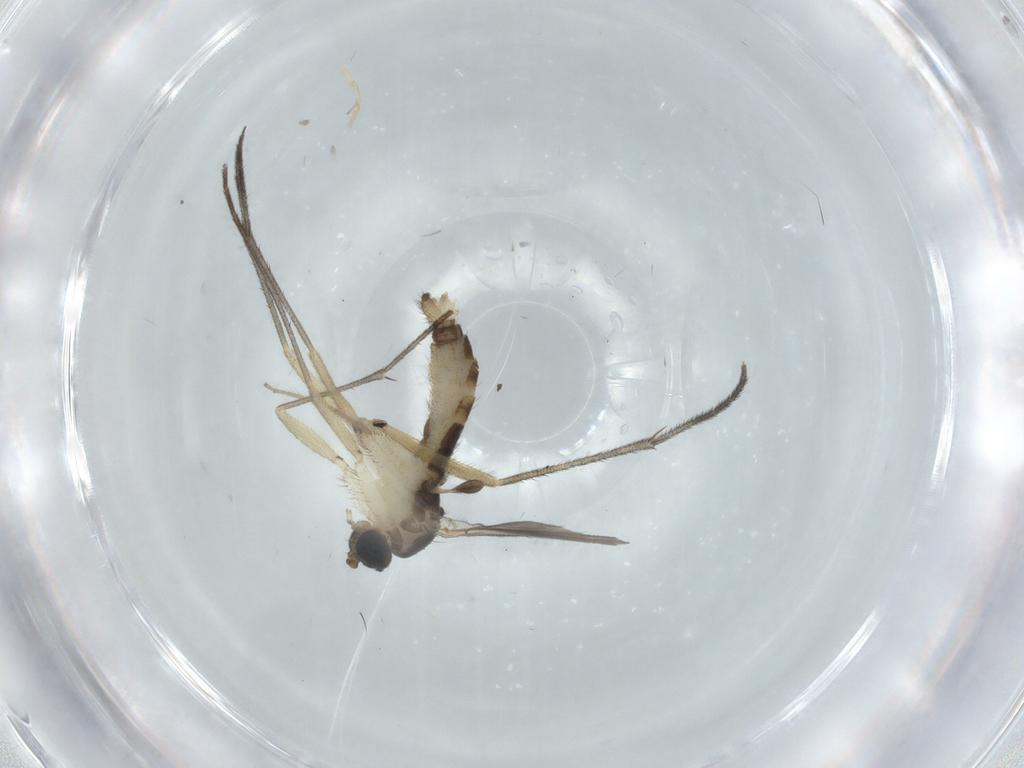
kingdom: Animalia
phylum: Arthropoda
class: Insecta
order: Diptera
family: Sciaridae
